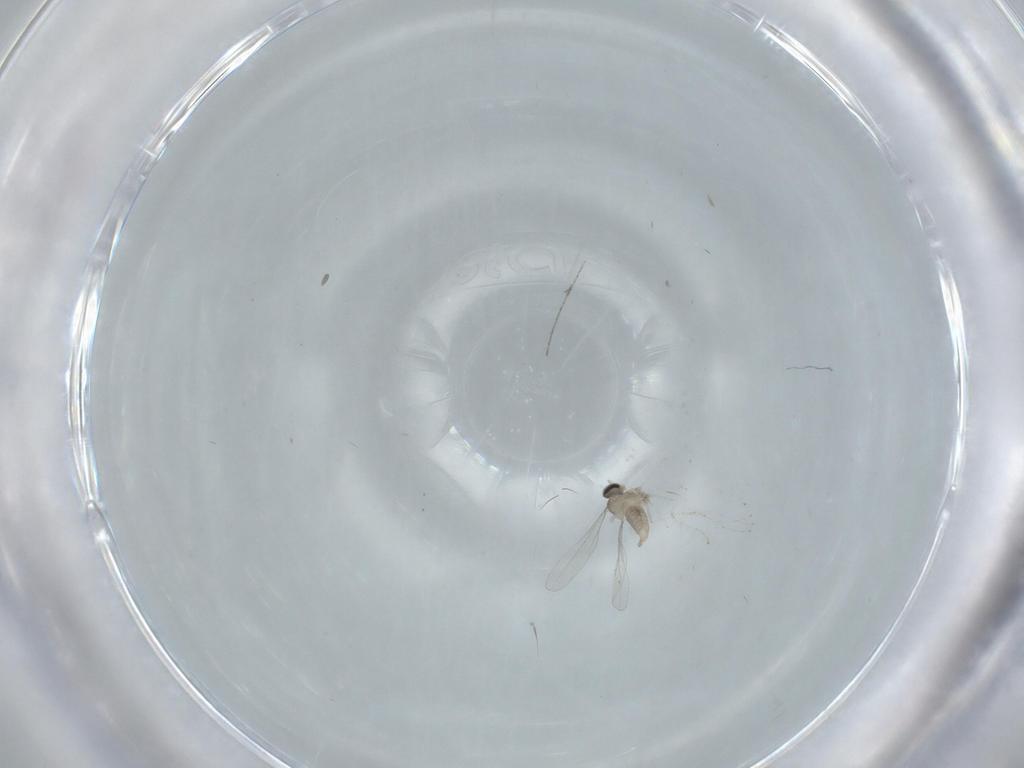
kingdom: Animalia
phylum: Arthropoda
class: Insecta
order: Diptera
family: Cecidomyiidae
